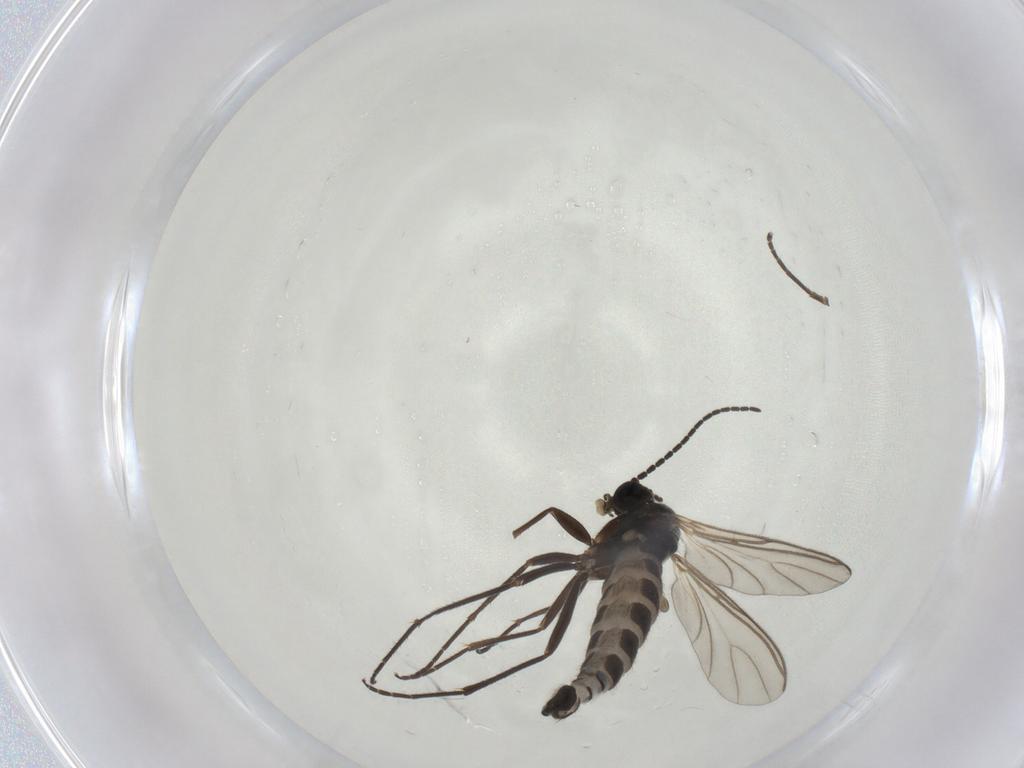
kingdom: Animalia
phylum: Arthropoda
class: Insecta
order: Diptera
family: Sciaridae
